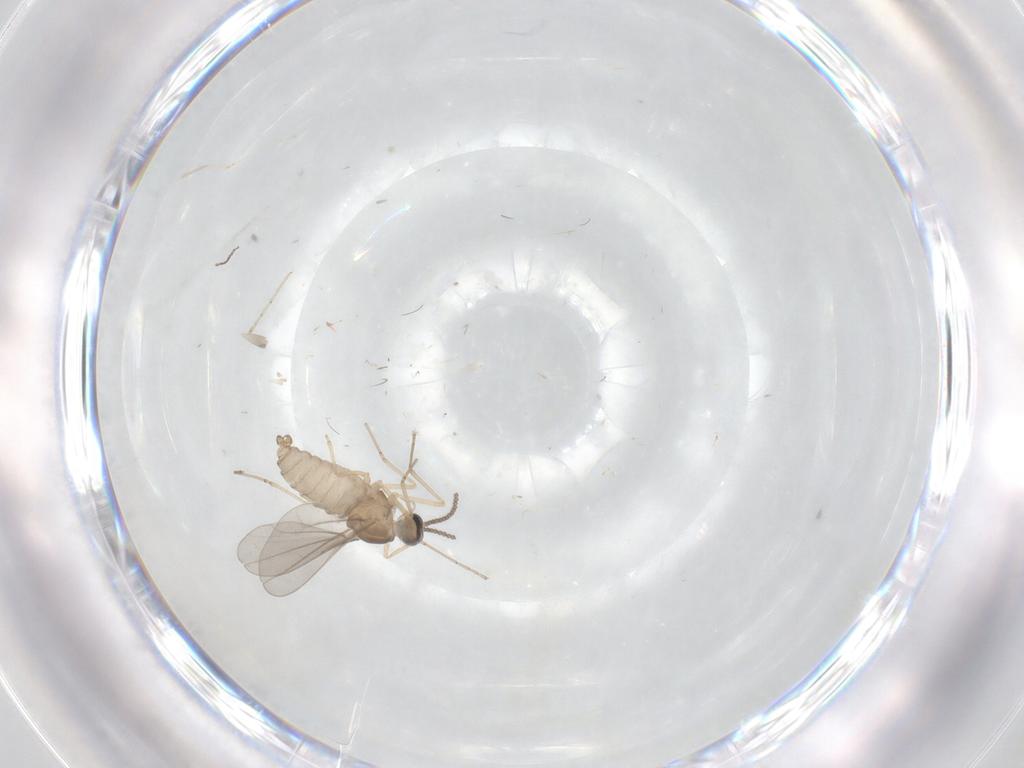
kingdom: Animalia
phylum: Arthropoda
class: Insecta
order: Diptera
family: Cecidomyiidae
